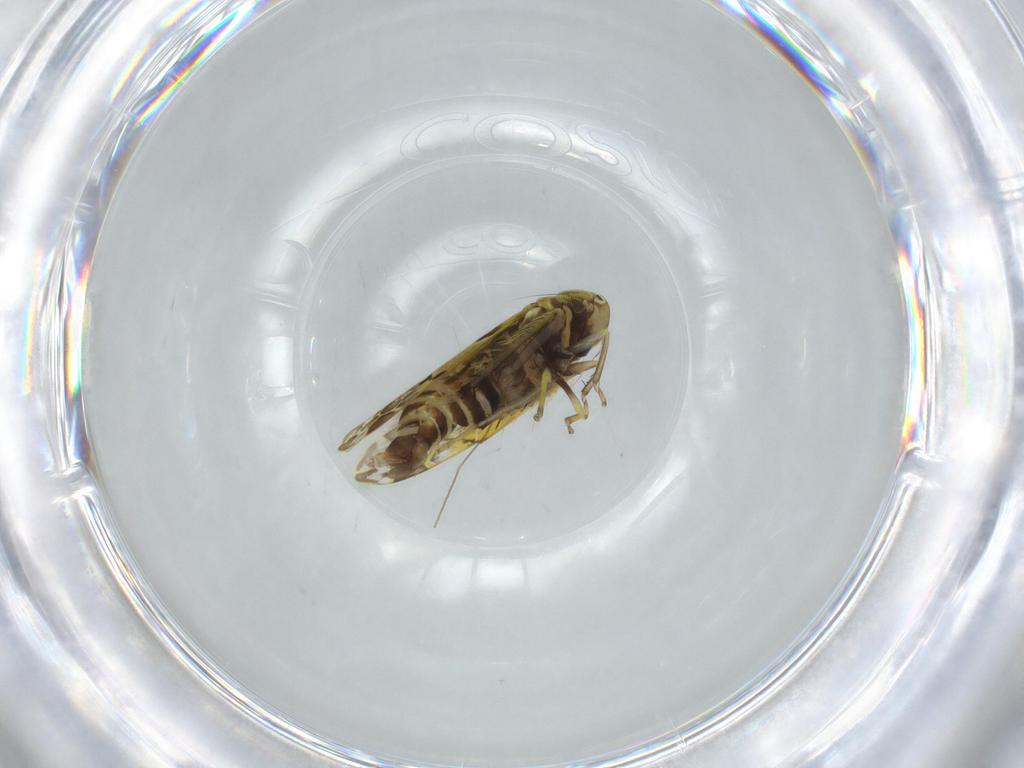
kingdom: Animalia
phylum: Arthropoda
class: Insecta
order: Hemiptera
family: Cicadellidae
